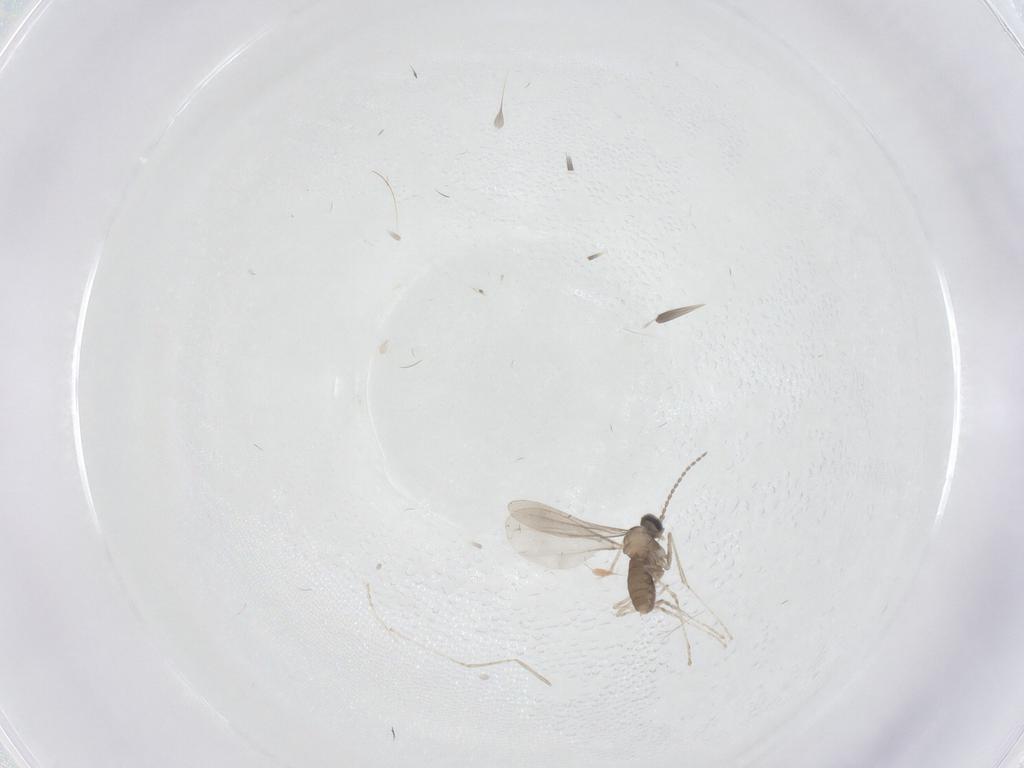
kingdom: Animalia
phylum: Arthropoda
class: Insecta
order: Diptera
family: Cecidomyiidae
